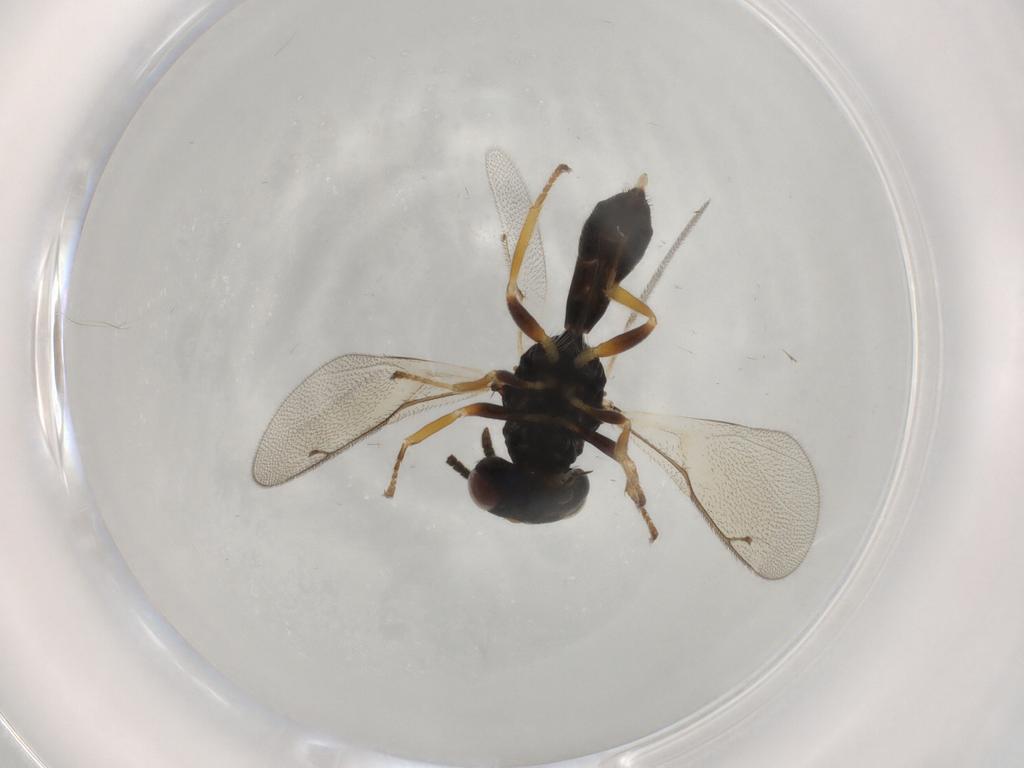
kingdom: Animalia
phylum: Arthropoda
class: Insecta
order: Hymenoptera
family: Pteromalidae
